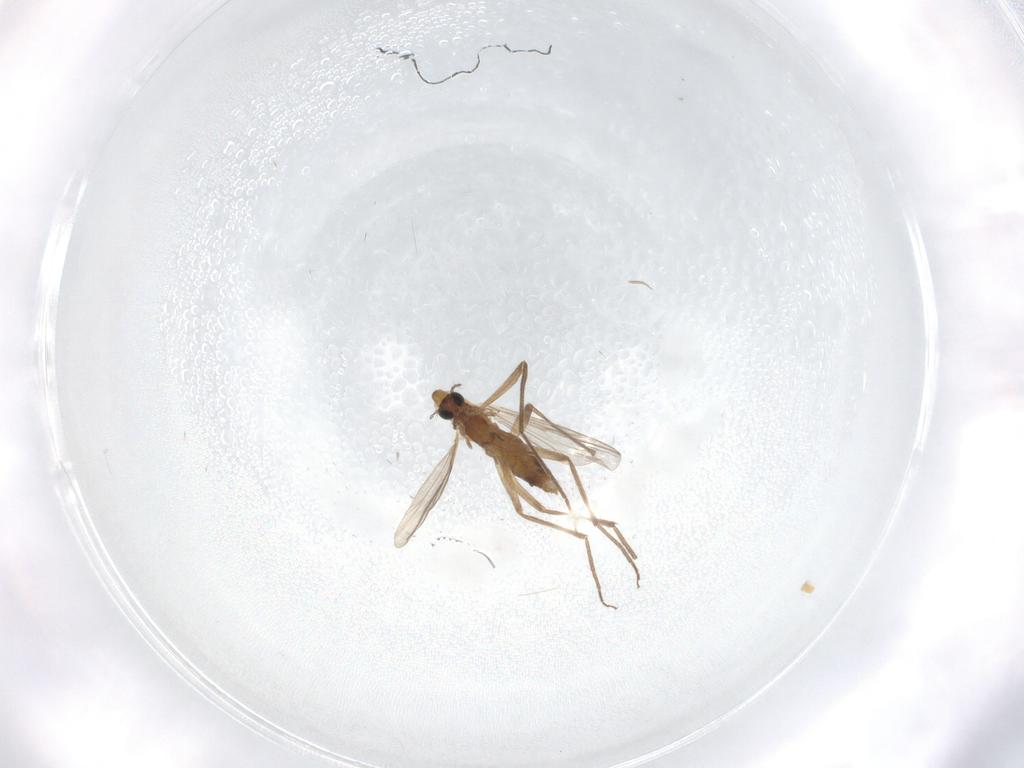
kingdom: Animalia
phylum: Arthropoda
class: Insecta
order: Diptera
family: Chironomidae
